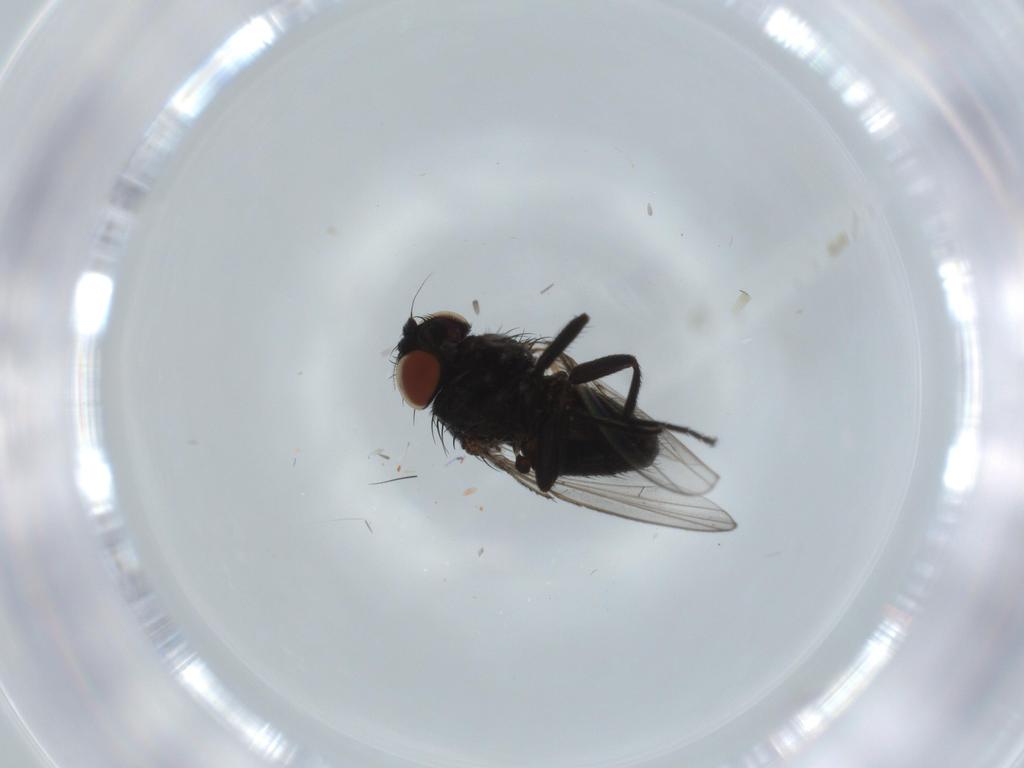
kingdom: Animalia
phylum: Arthropoda
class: Insecta
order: Diptera
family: Milichiidae
